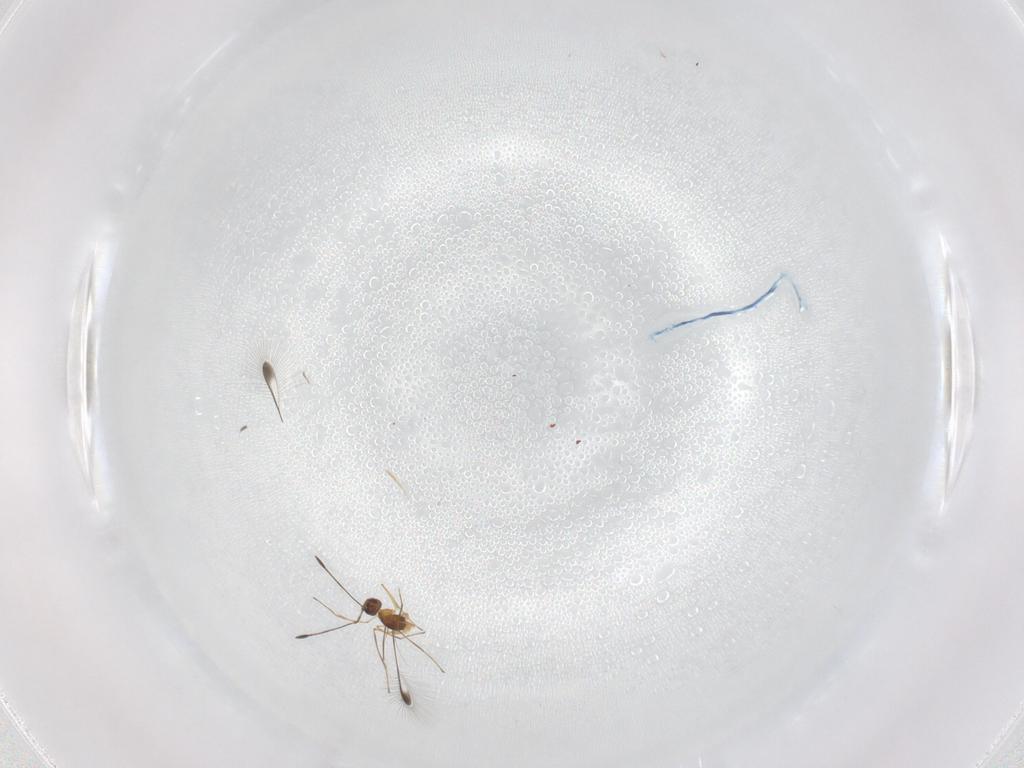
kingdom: Animalia
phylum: Arthropoda
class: Insecta
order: Hymenoptera
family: Mymaridae
